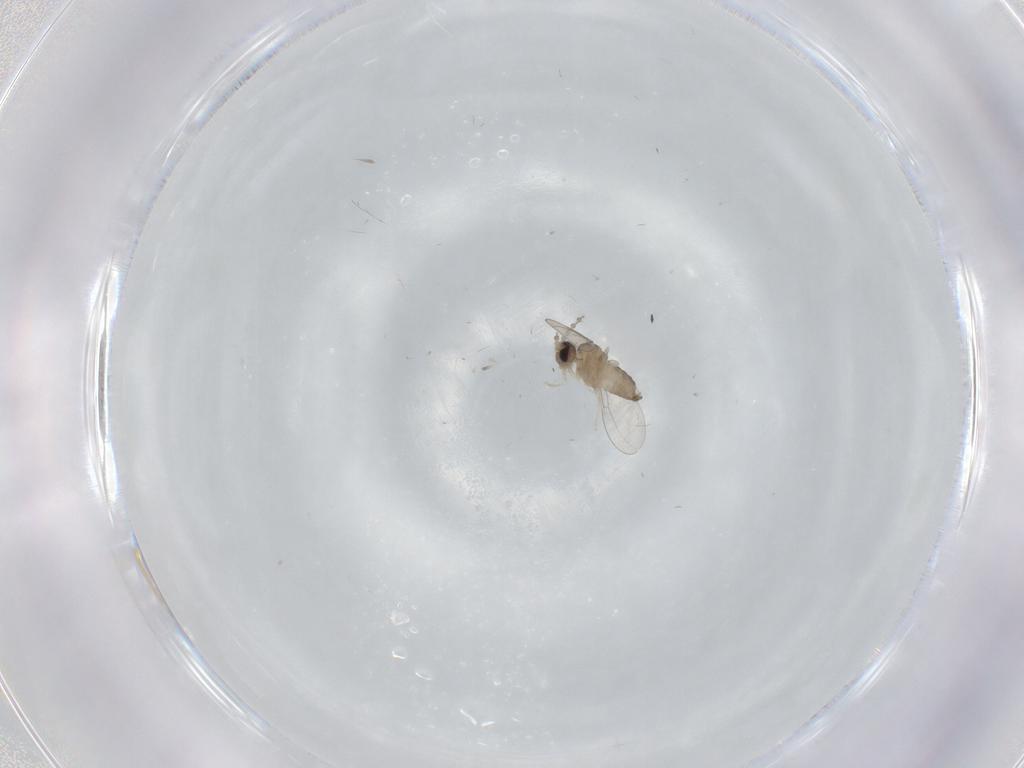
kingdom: Animalia
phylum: Arthropoda
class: Insecta
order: Diptera
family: Cecidomyiidae
